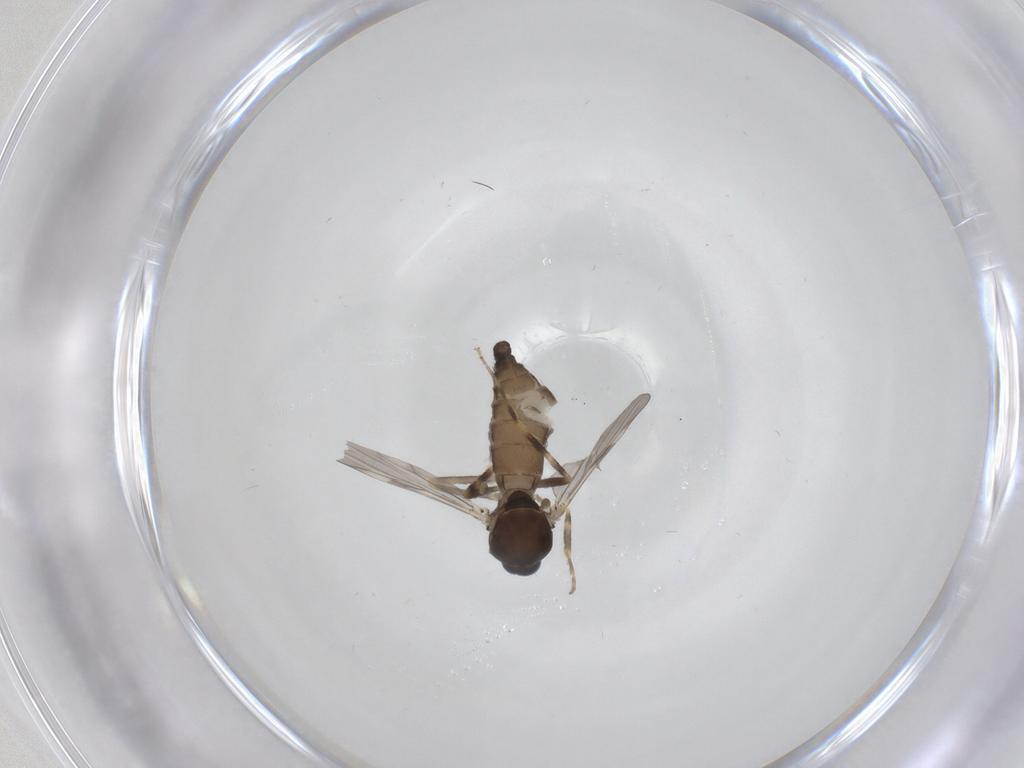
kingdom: Animalia
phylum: Arthropoda
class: Insecta
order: Diptera
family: Ceratopogonidae
